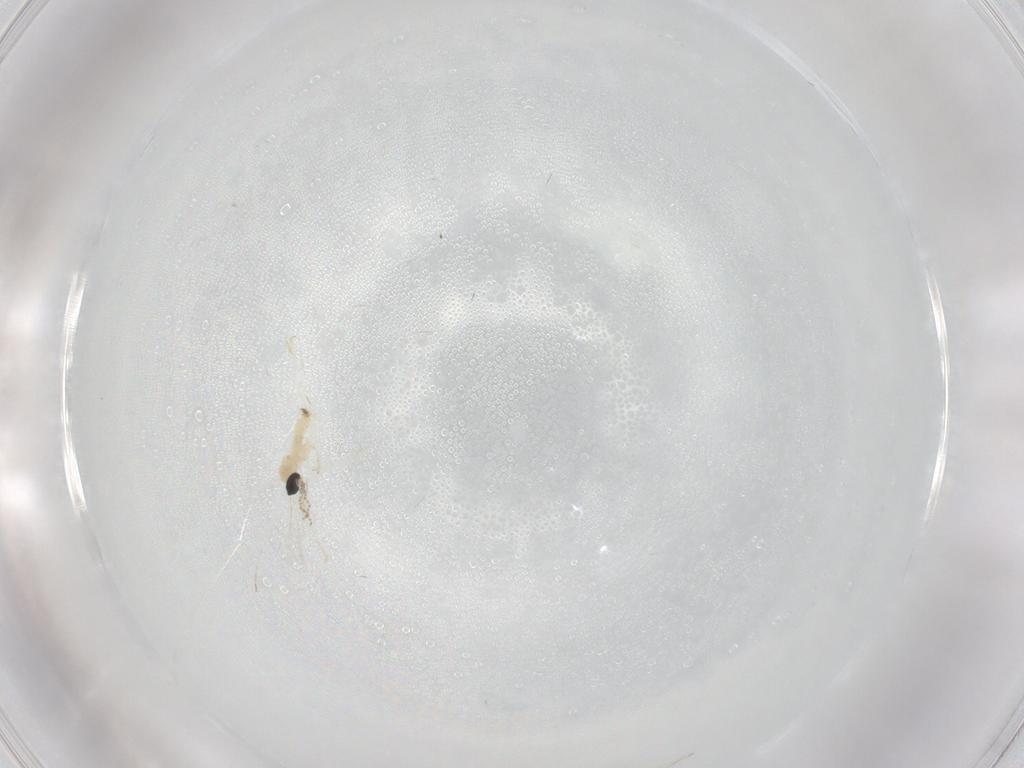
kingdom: Animalia
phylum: Arthropoda
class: Insecta
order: Diptera
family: Cecidomyiidae
